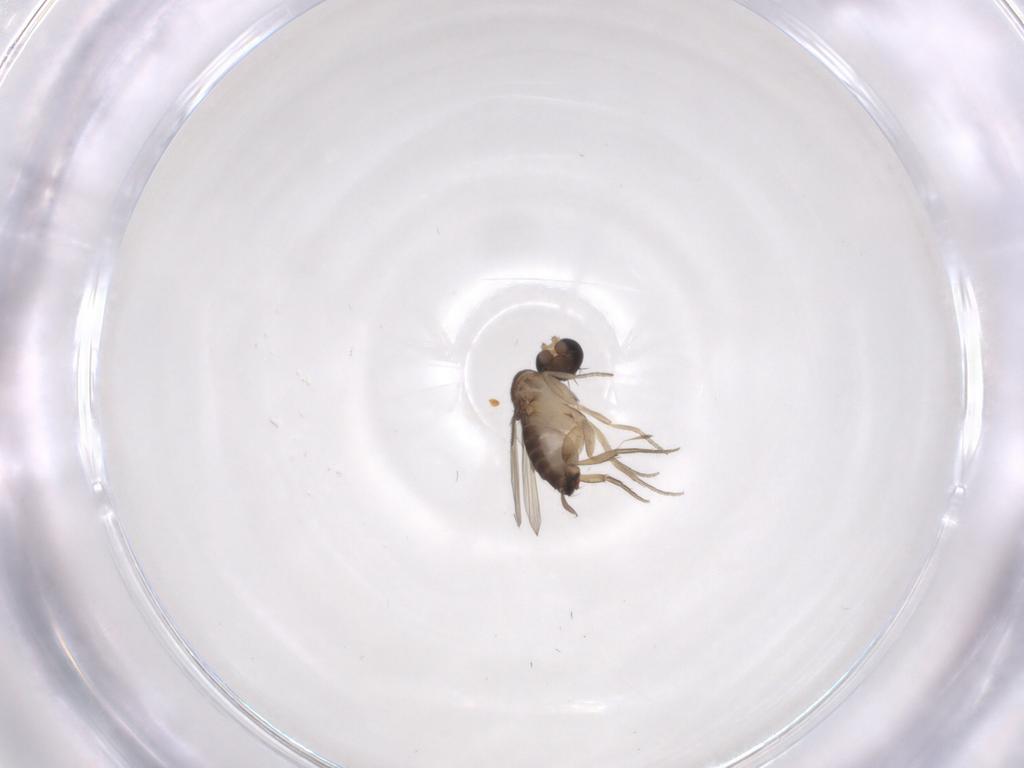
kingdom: Animalia
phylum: Arthropoda
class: Insecta
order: Diptera
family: Phoridae
